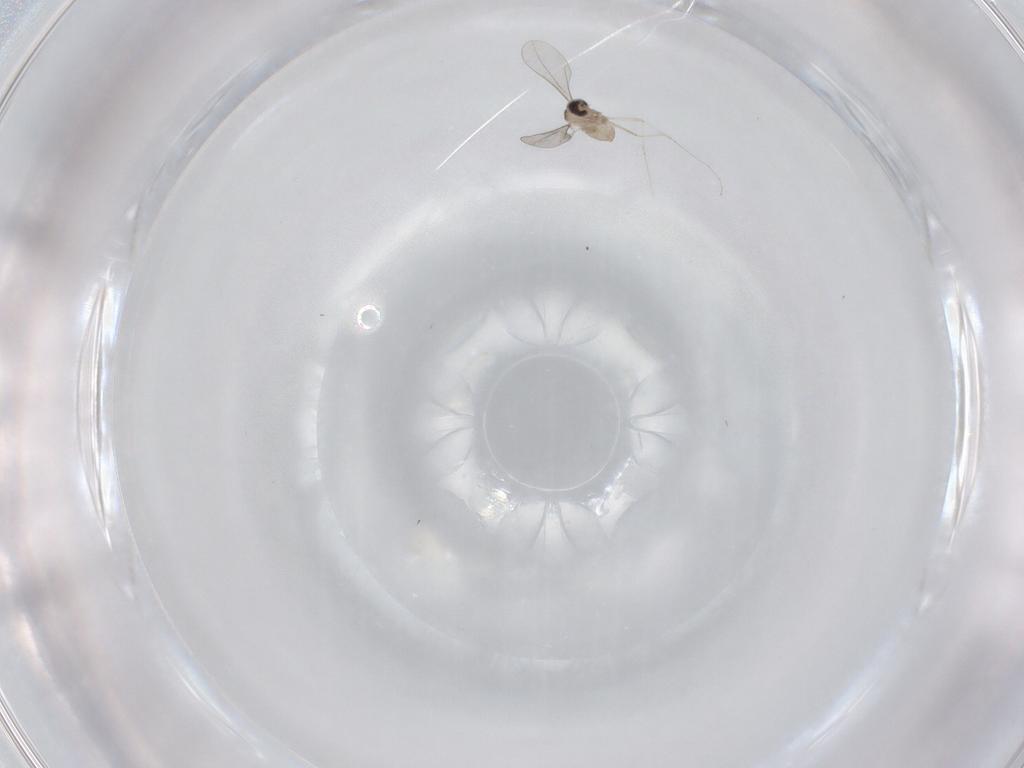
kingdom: Animalia
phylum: Arthropoda
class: Insecta
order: Diptera
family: Cecidomyiidae
